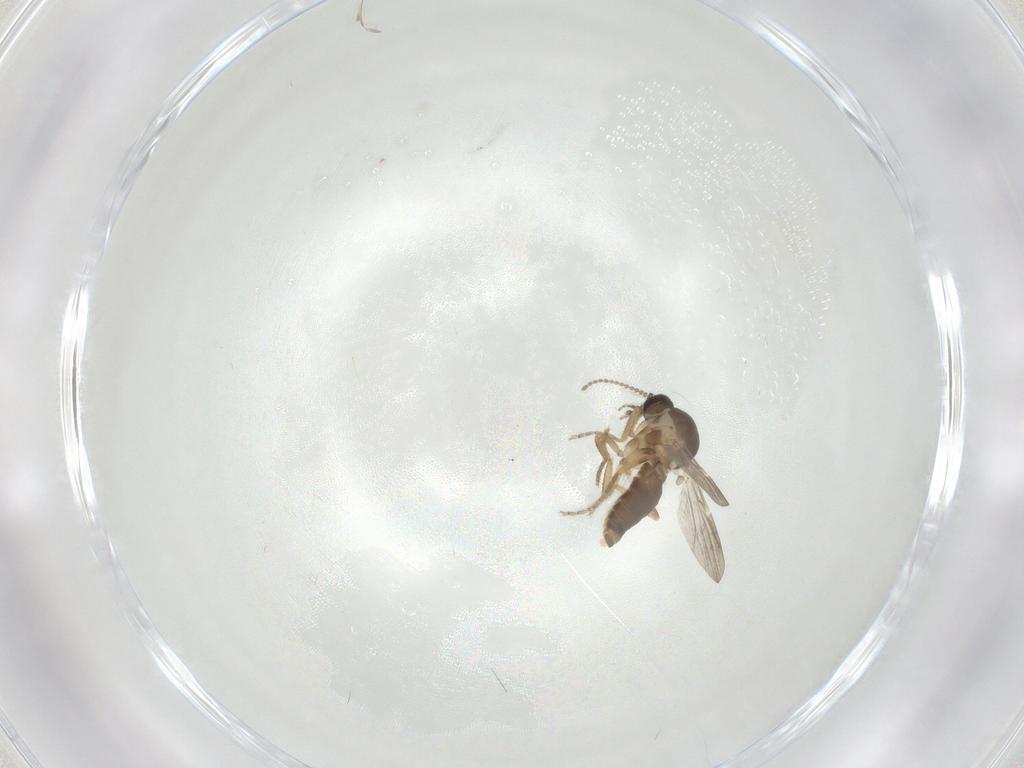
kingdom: Animalia
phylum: Arthropoda
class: Insecta
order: Diptera
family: Ceratopogonidae
